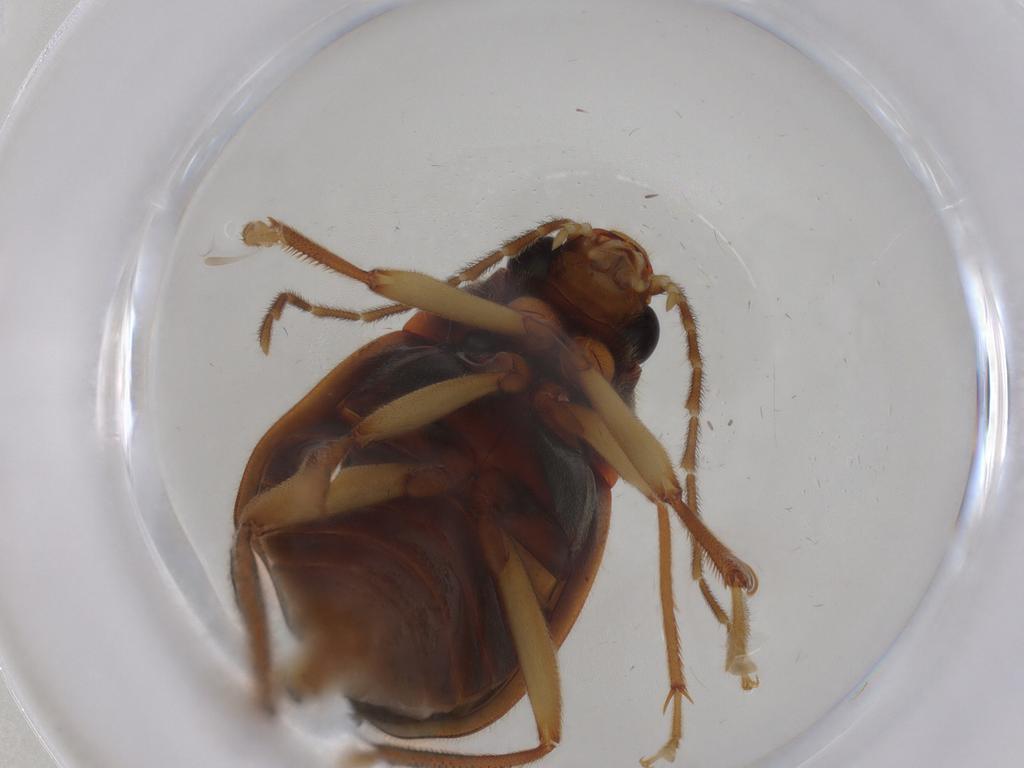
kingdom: Animalia
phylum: Arthropoda
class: Insecta
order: Coleoptera
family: Ptilodactylidae
